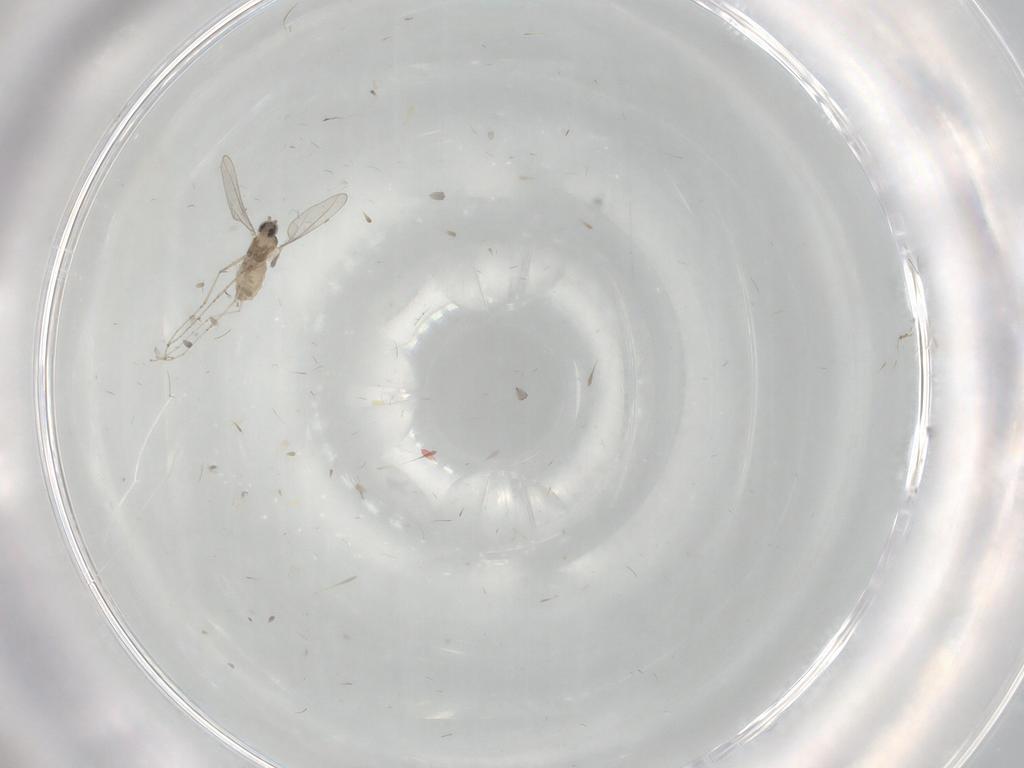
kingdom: Animalia
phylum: Arthropoda
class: Insecta
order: Diptera
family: Cecidomyiidae
